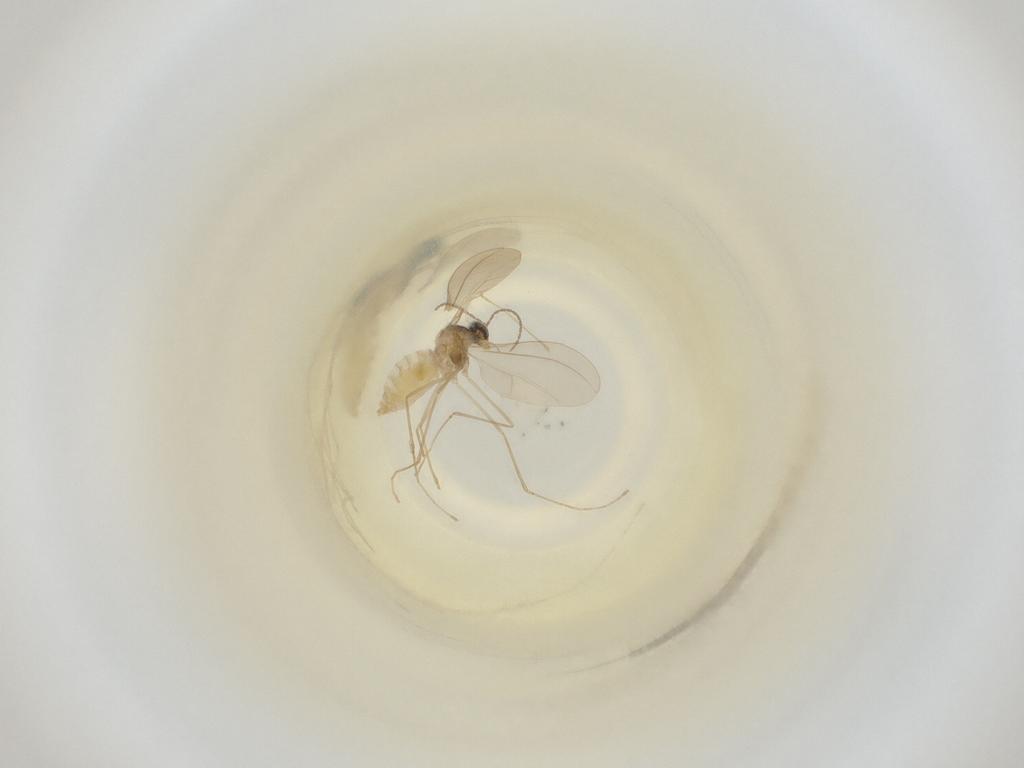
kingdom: Animalia
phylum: Arthropoda
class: Insecta
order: Diptera
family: Cecidomyiidae
